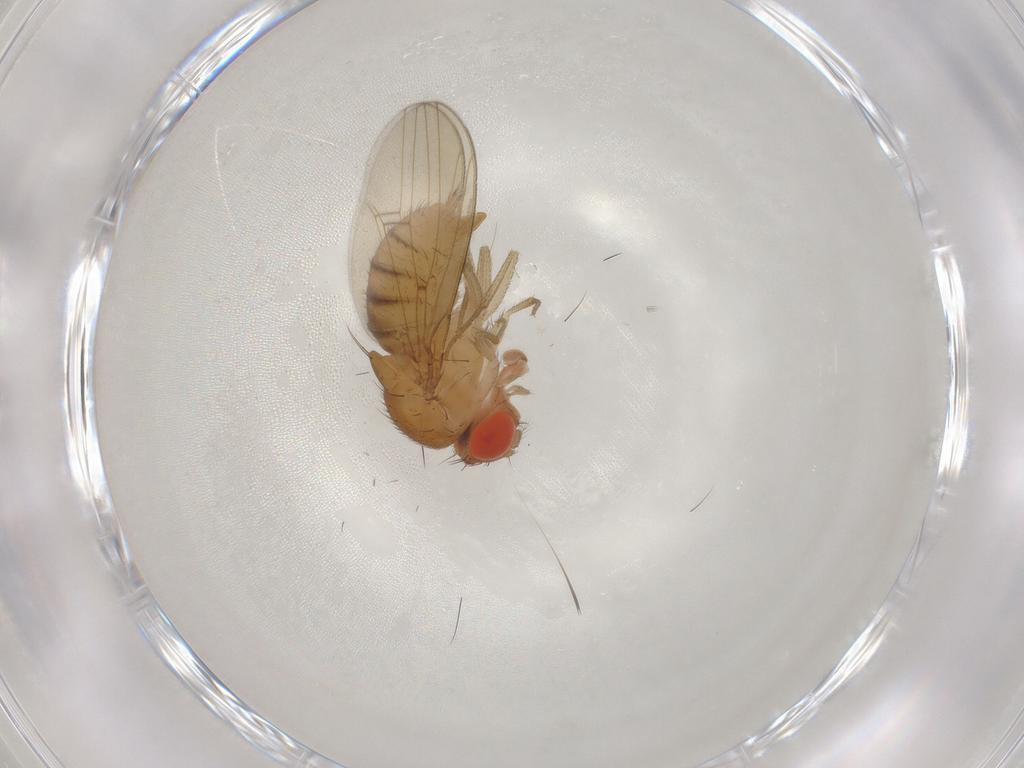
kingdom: Animalia
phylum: Arthropoda
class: Insecta
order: Diptera
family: Drosophilidae
